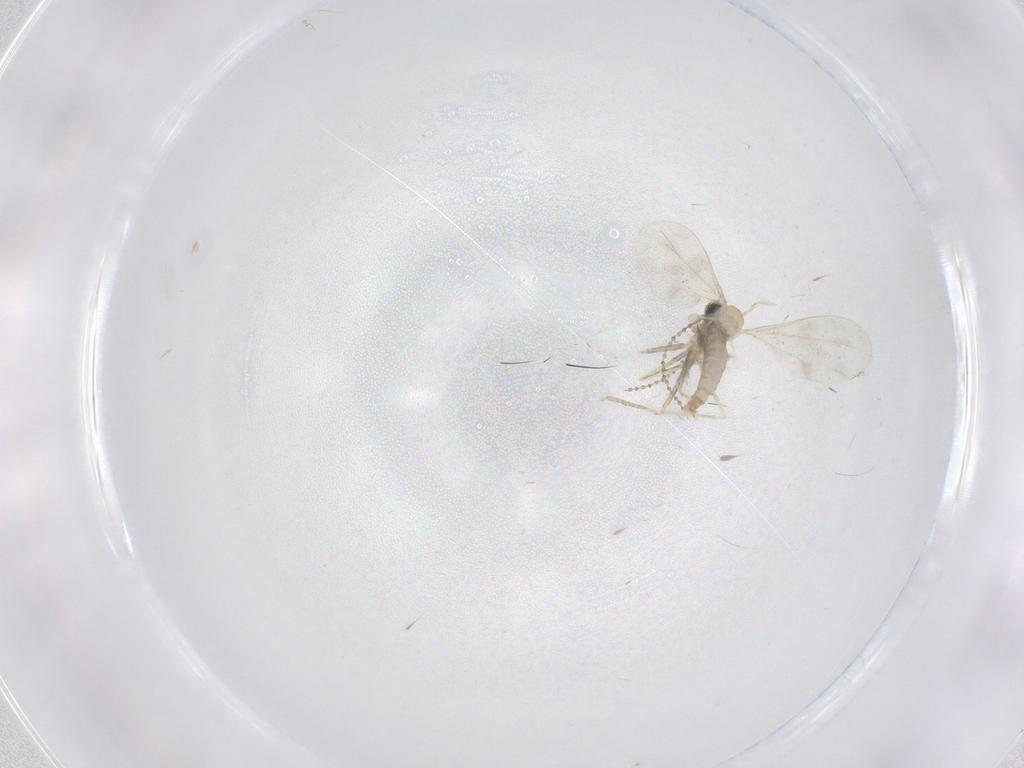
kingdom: Animalia
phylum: Arthropoda
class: Insecta
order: Diptera
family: Cecidomyiidae
